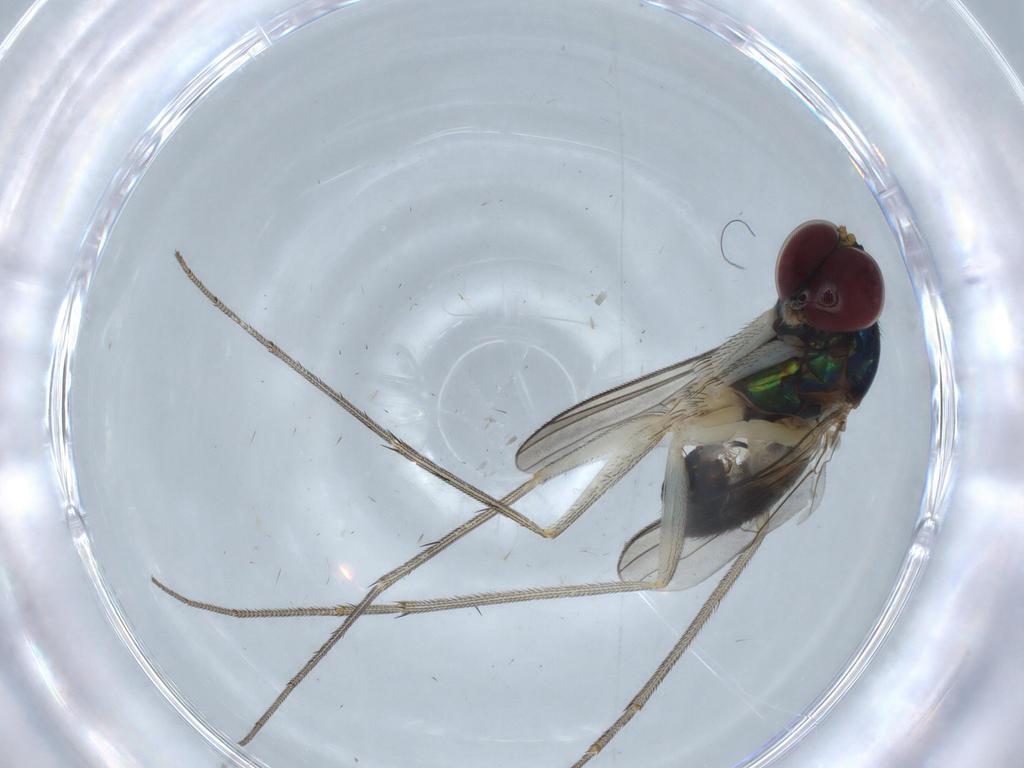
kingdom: Animalia
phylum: Arthropoda
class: Insecta
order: Diptera
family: Dolichopodidae
